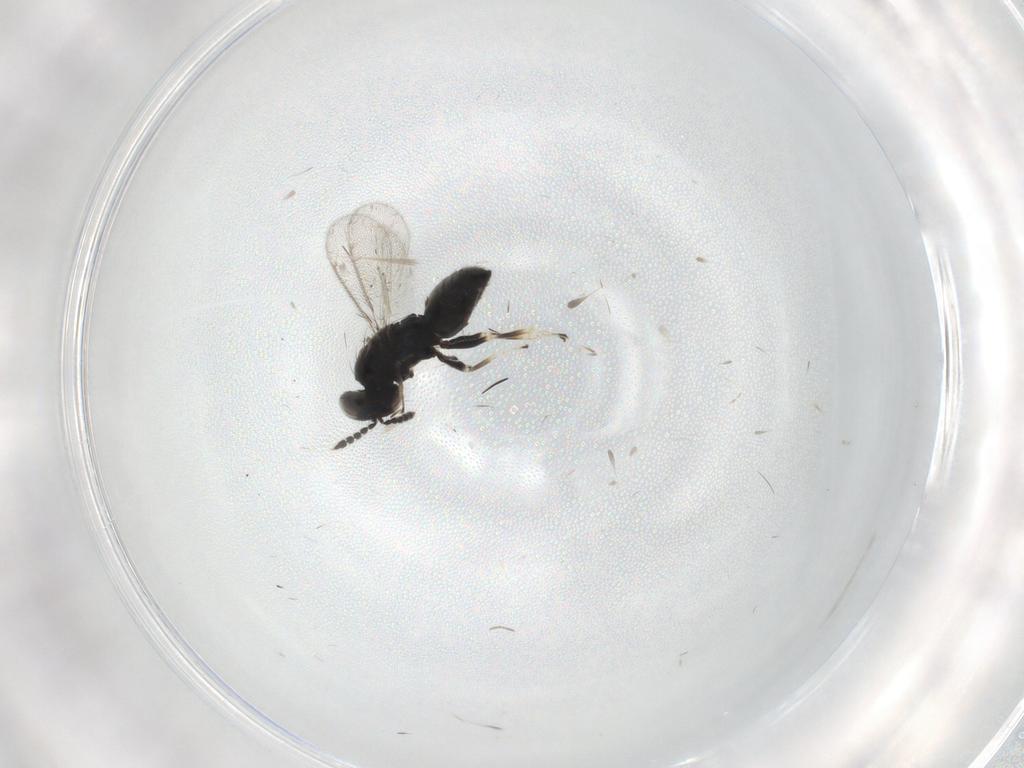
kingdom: Animalia
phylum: Arthropoda
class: Insecta
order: Hymenoptera
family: Eulophidae
